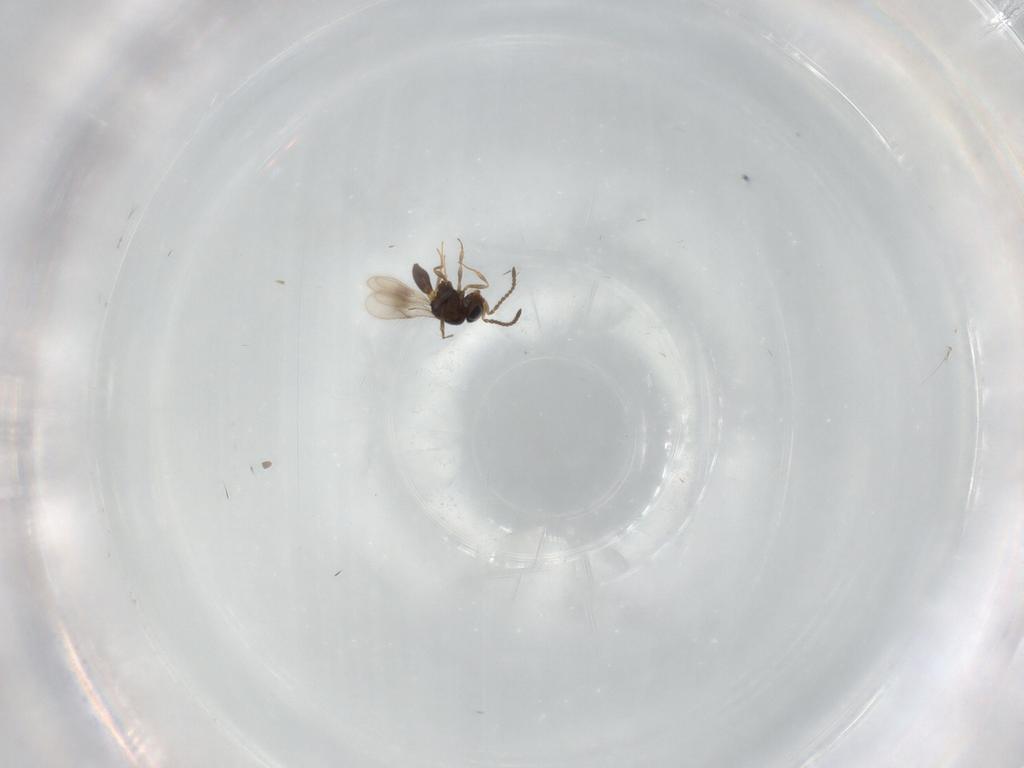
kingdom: Animalia
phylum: Arthropoda
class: Insecta
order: Hymenoptera
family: Scelionidae
